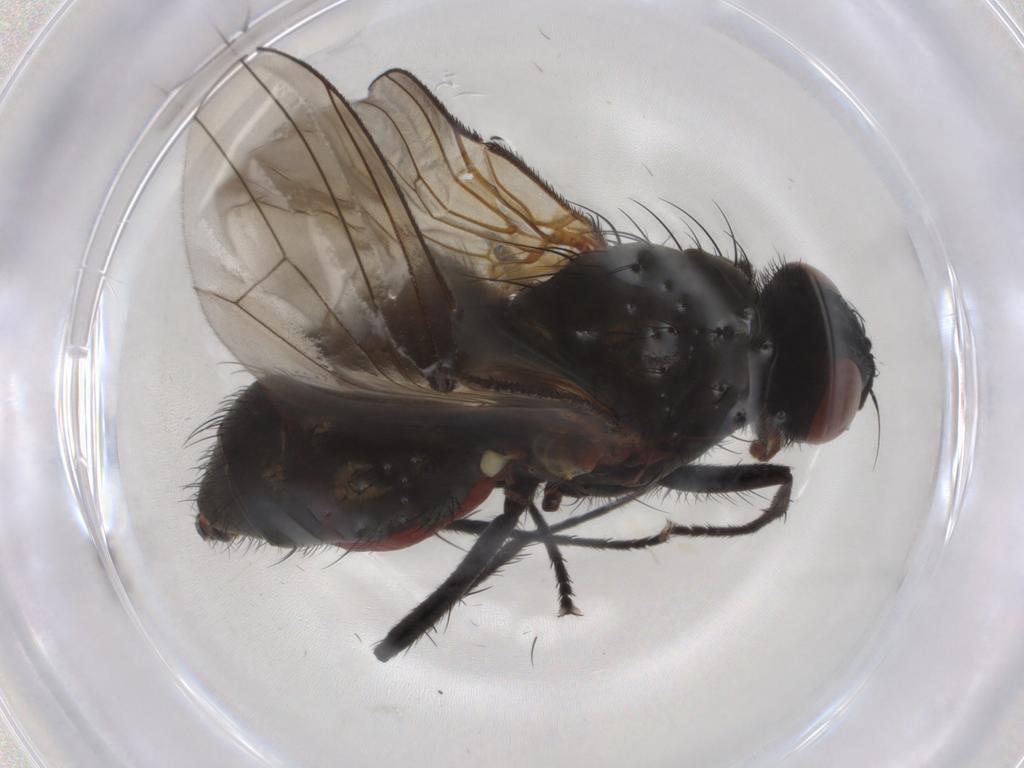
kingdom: Animalia
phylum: Arthropoda
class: Insecta
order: Diptera
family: Anthomyiidae
